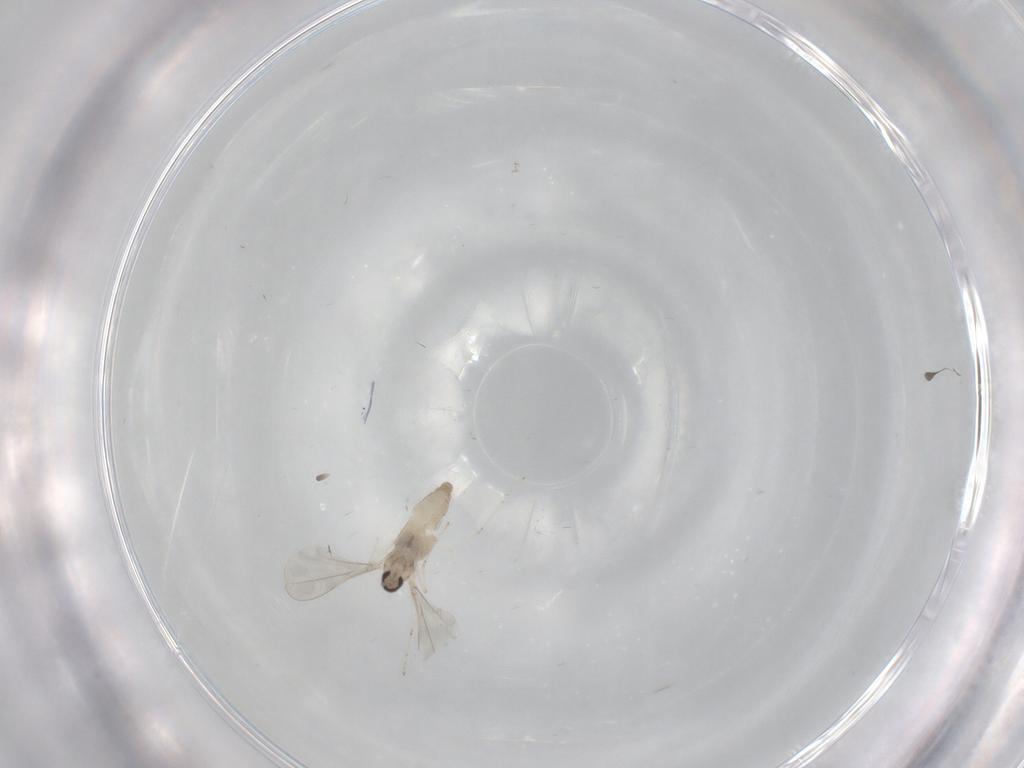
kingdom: Animalia
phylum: Arthropoda
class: Insecta
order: Diptera
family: Cecidomyiidae
